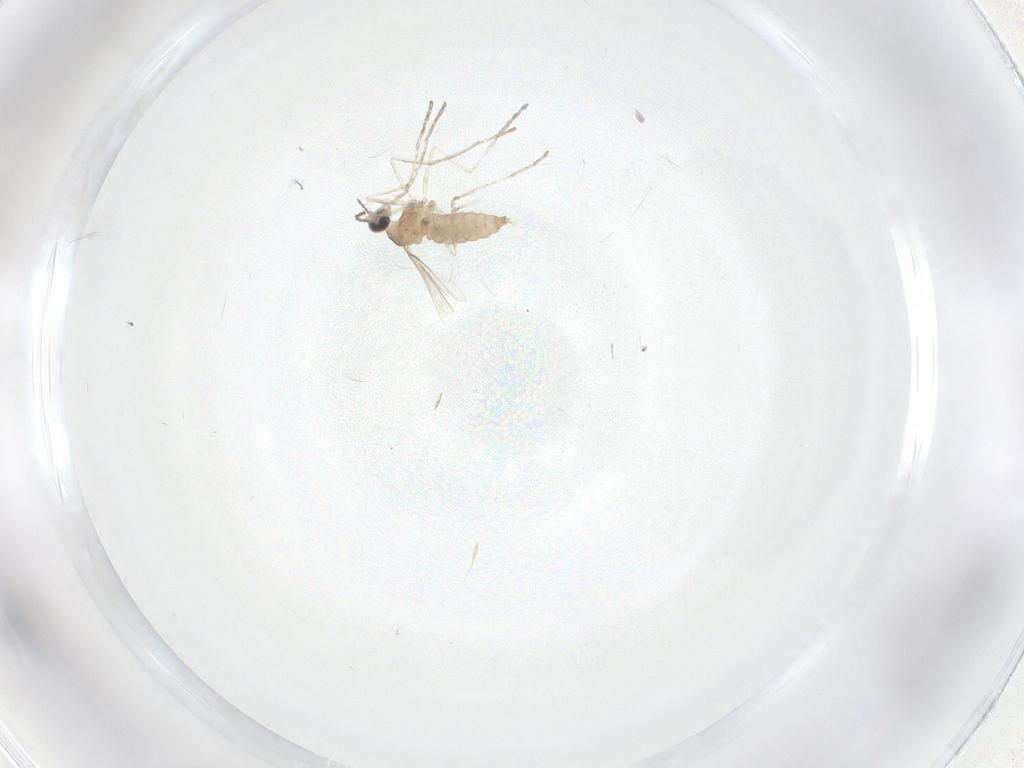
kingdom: Animalia
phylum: Arthropoda
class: Insecta
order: Diptera
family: Cecidomyiidae
